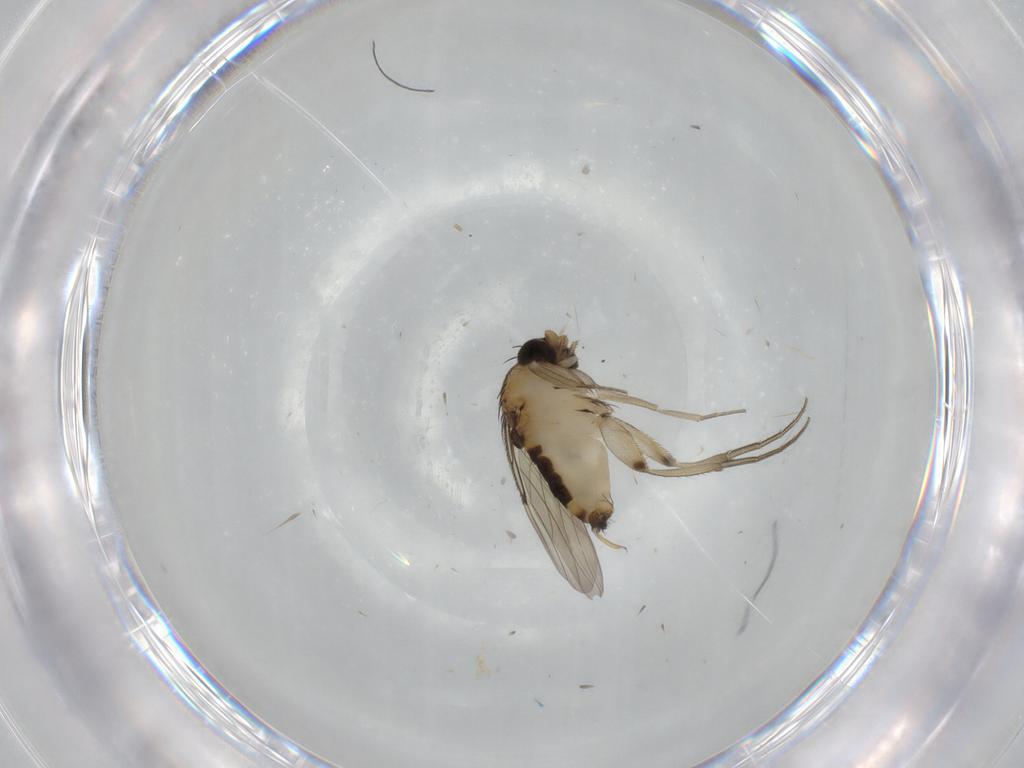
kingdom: Animalia
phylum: Arthropoda
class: Insecta
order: Diptera
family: Phoridae
